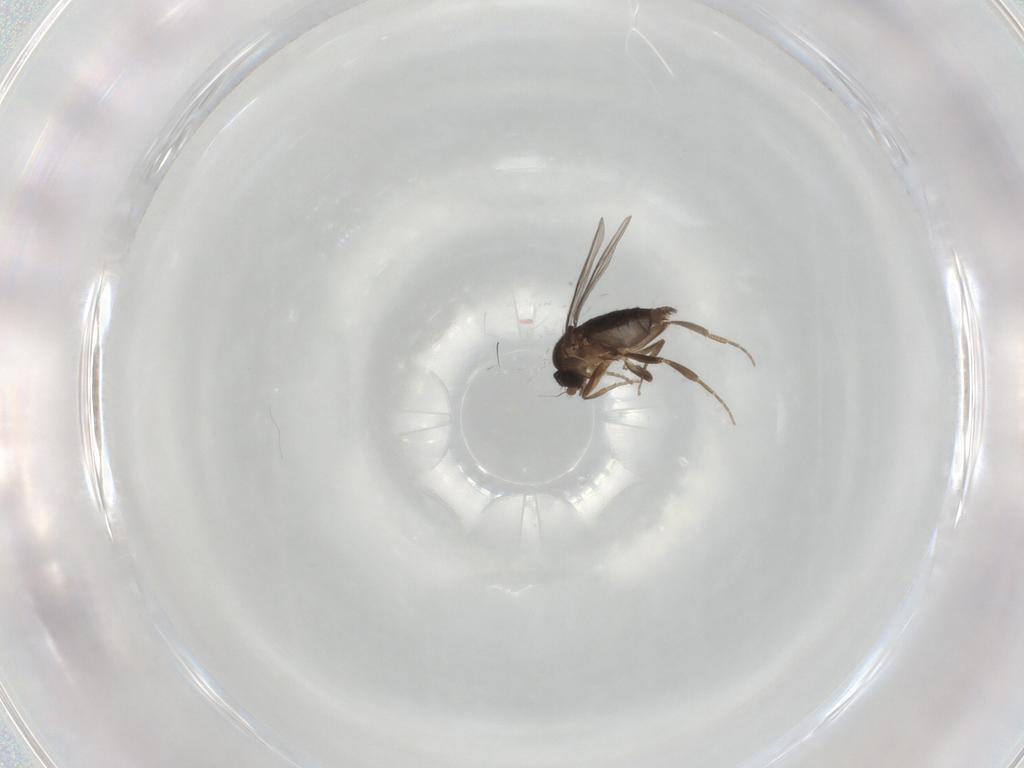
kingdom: Animalia
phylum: Arthropoda
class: Insecta
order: Diptera
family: Phoridae
